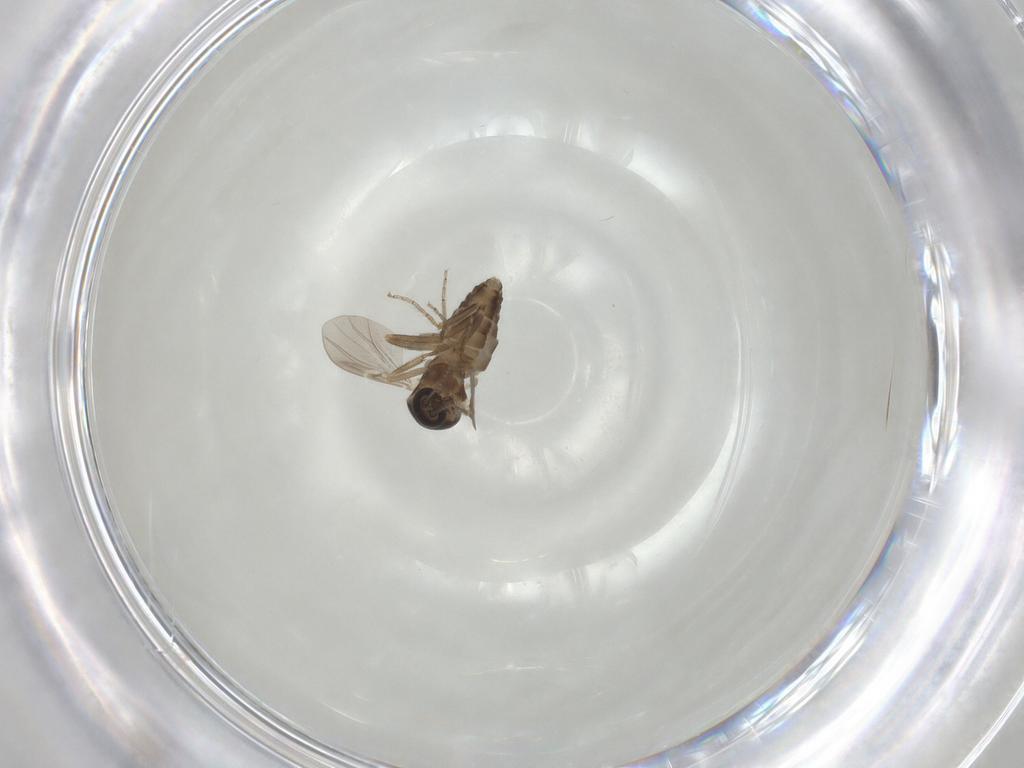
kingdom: Animalia
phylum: Arthropoda
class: Insecta
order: Diptera
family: Ceratopogonidae
